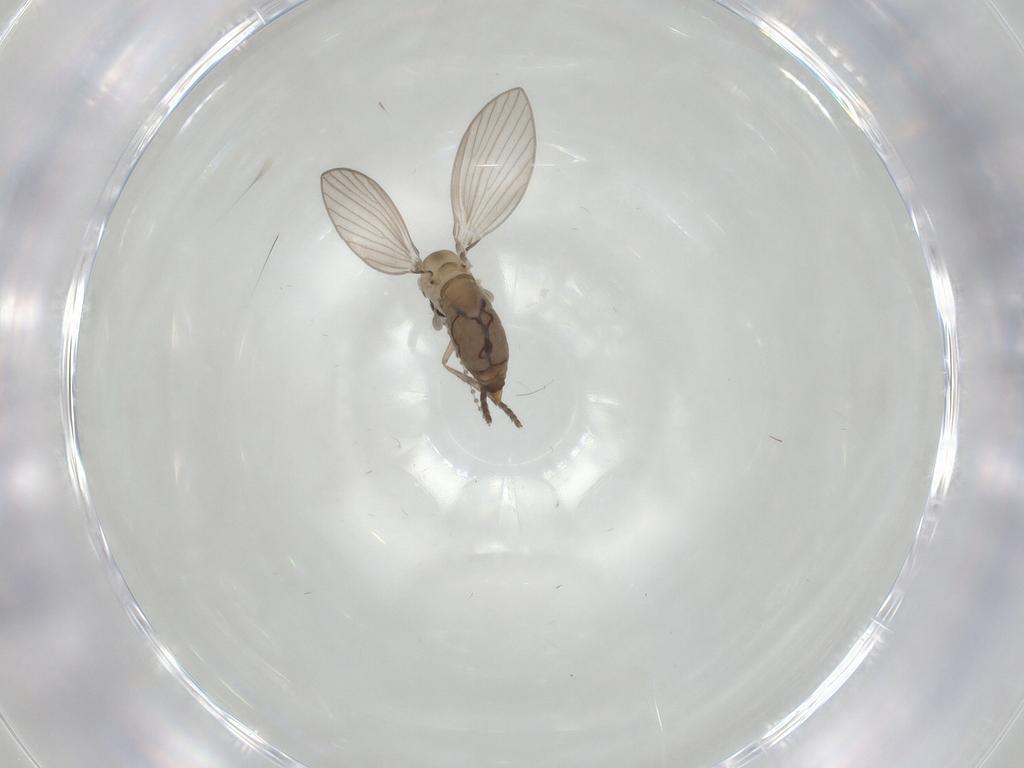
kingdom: Animalia
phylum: Arthropoda
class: Insecta
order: Diptera
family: Psychodidae
